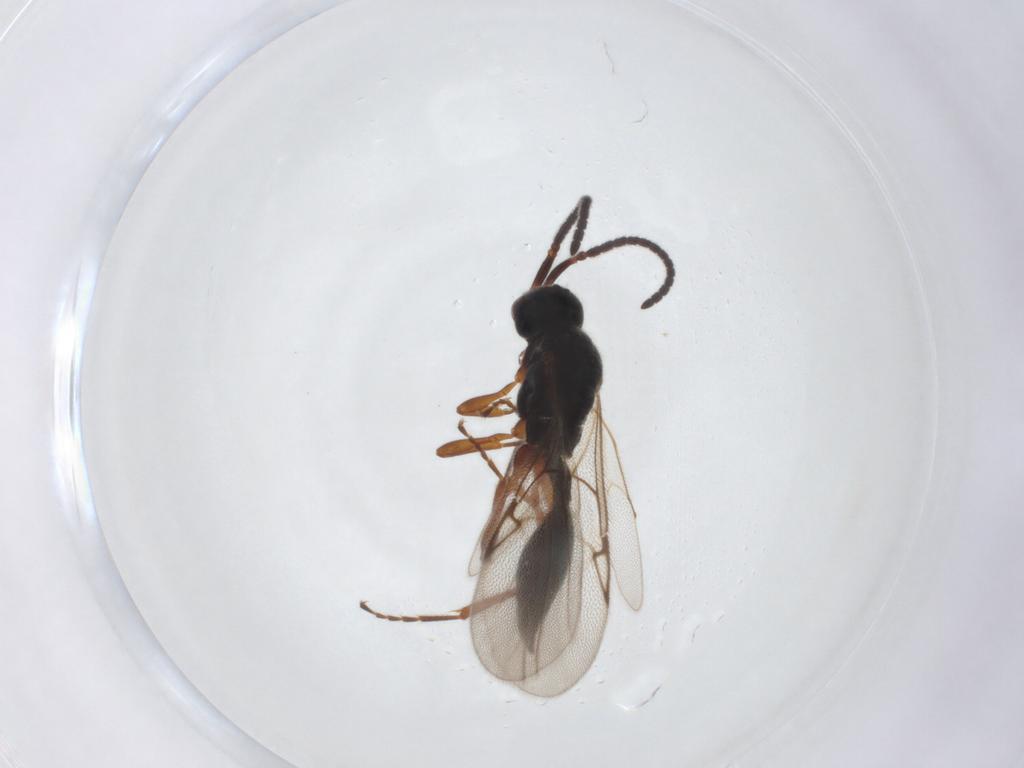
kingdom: Animalia
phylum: Arthropoda
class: Insecta
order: Hymenoptera
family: Diapriidae
